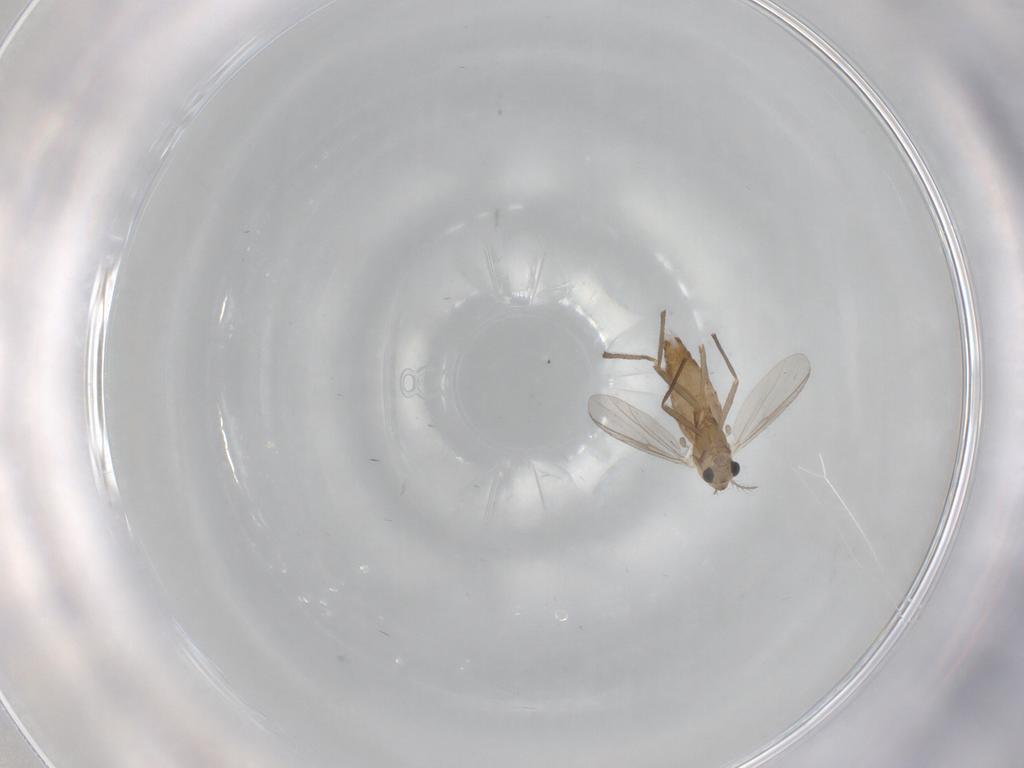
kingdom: Animalia
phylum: Arthropoda
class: Insecta
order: Diptera
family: Chironomidae
